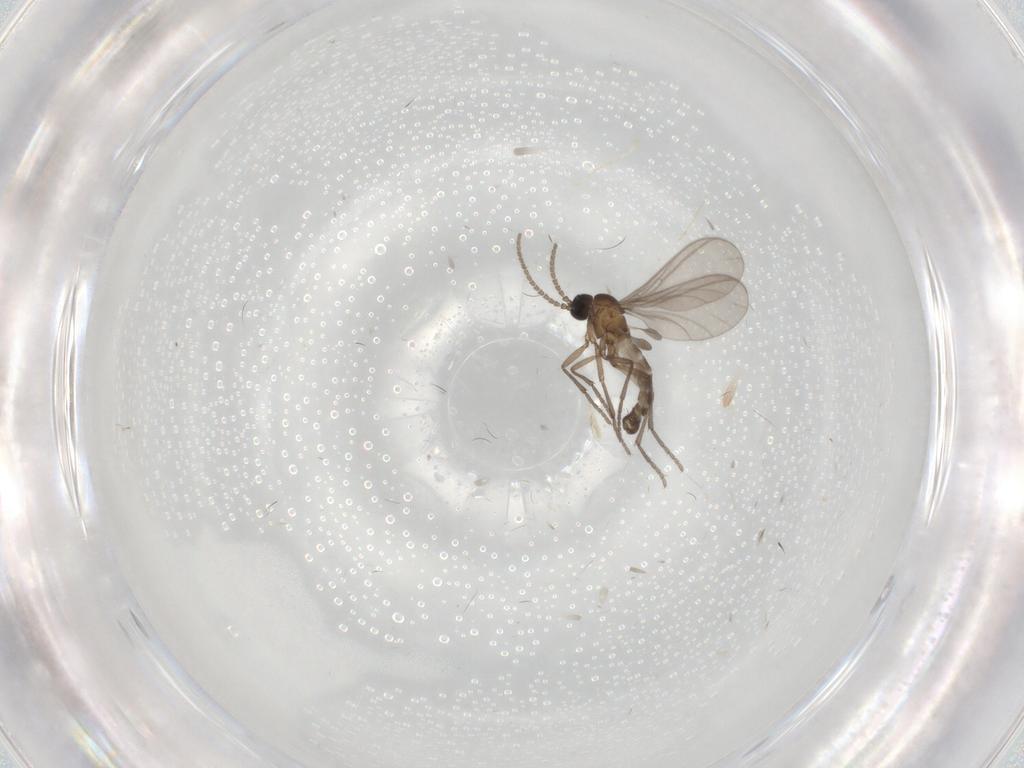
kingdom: Animalia
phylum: Arthropoda
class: Insecta
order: Diptera
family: Sciaridae
